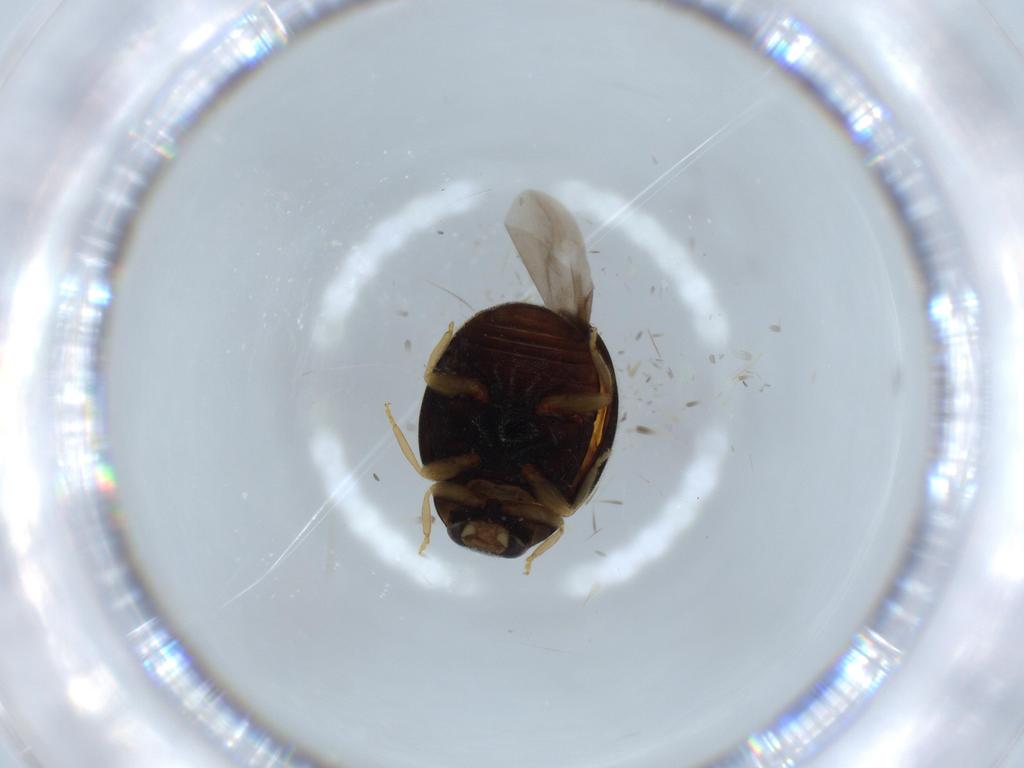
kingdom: Animalia
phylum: Arthropoda
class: Insecta
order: Coleoptera
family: Coccinellidae
